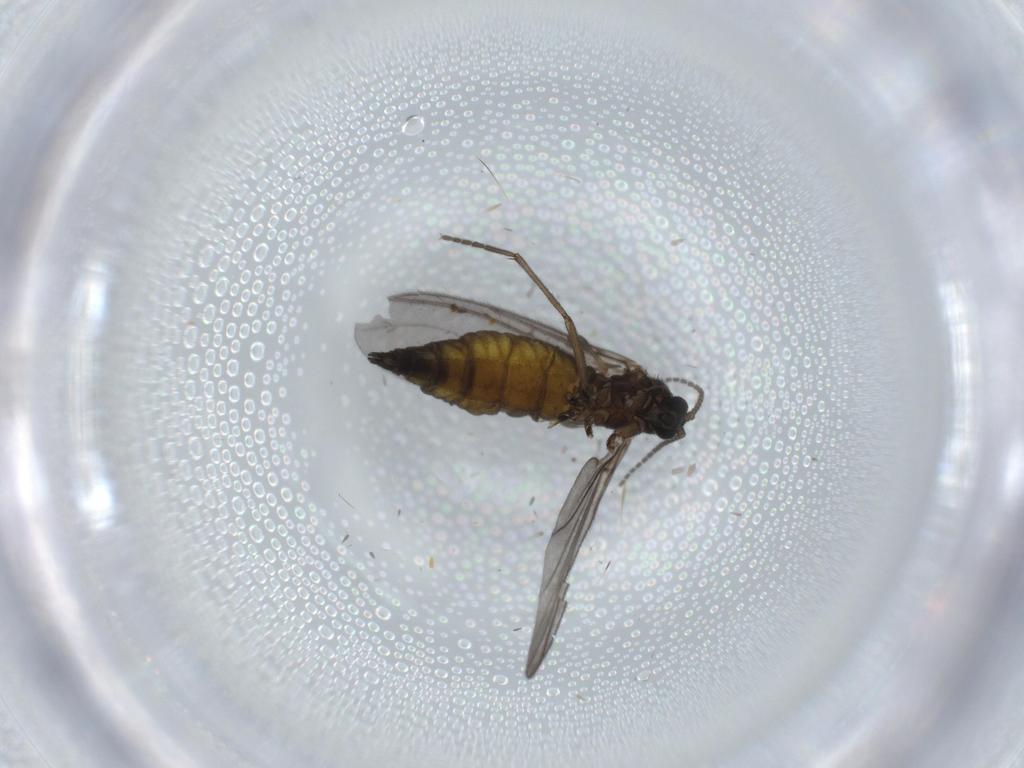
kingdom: Animalia
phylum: Arthropoda
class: Insecta
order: Diptera
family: Sciaridae
